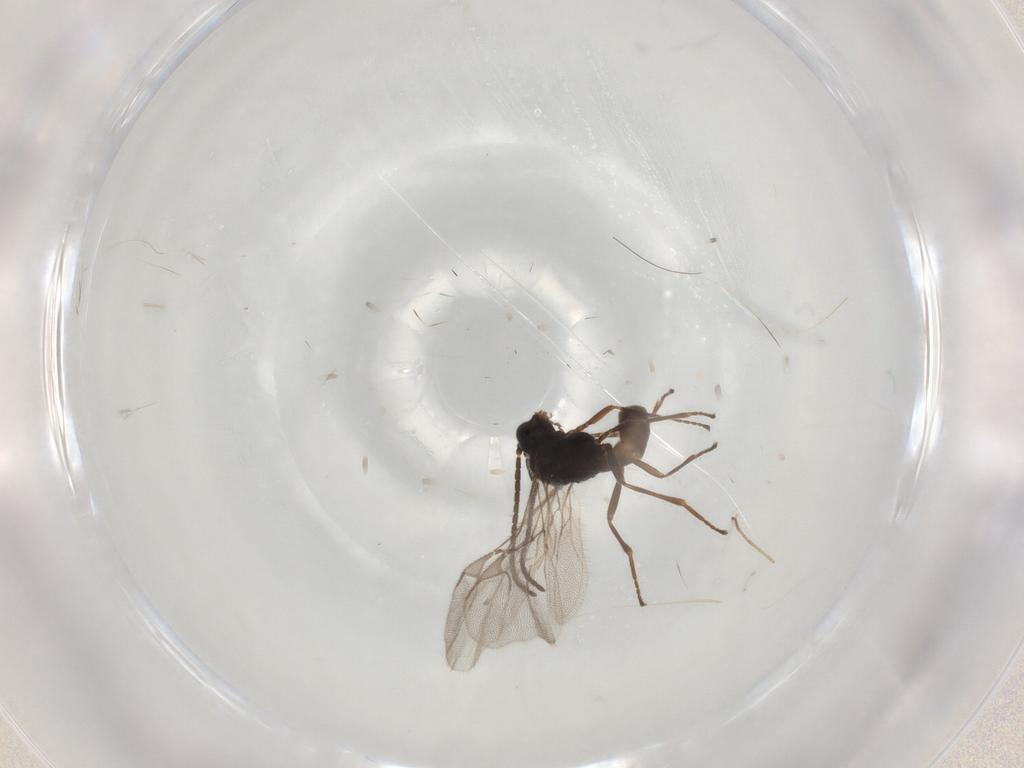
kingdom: Animalia
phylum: Arthropoda
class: Insecta
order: Hymenoptera
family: Braconidae
